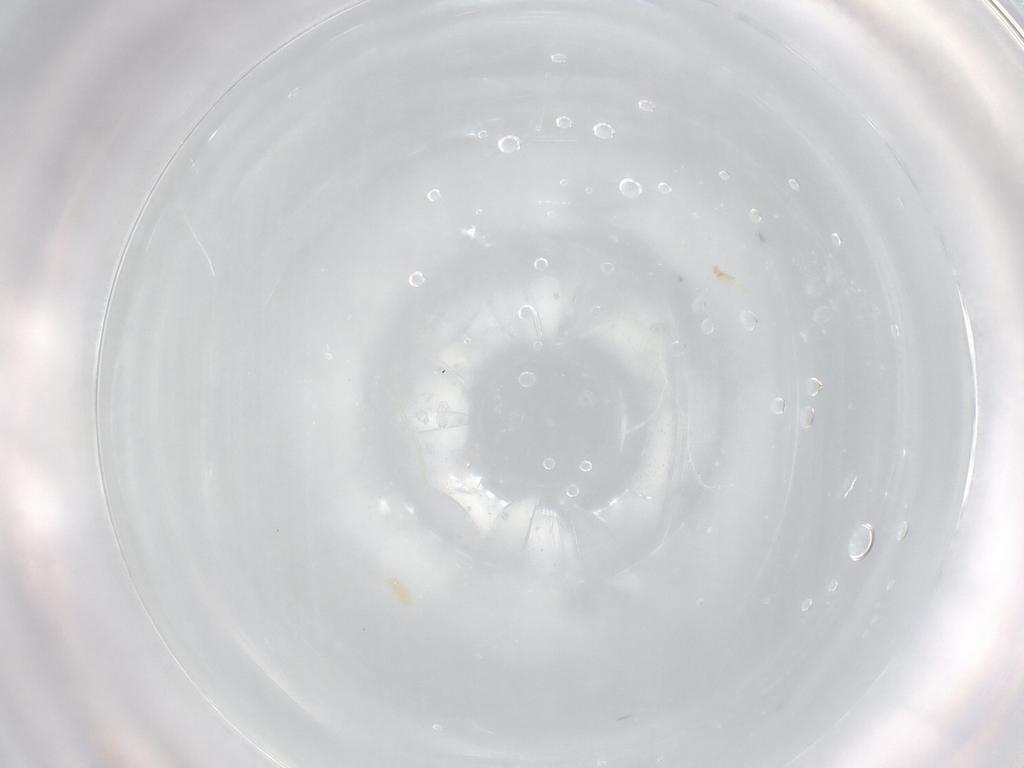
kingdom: Animalia
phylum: Arthropoda
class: Arachnida
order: Trombidiformes
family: Eupodidae
